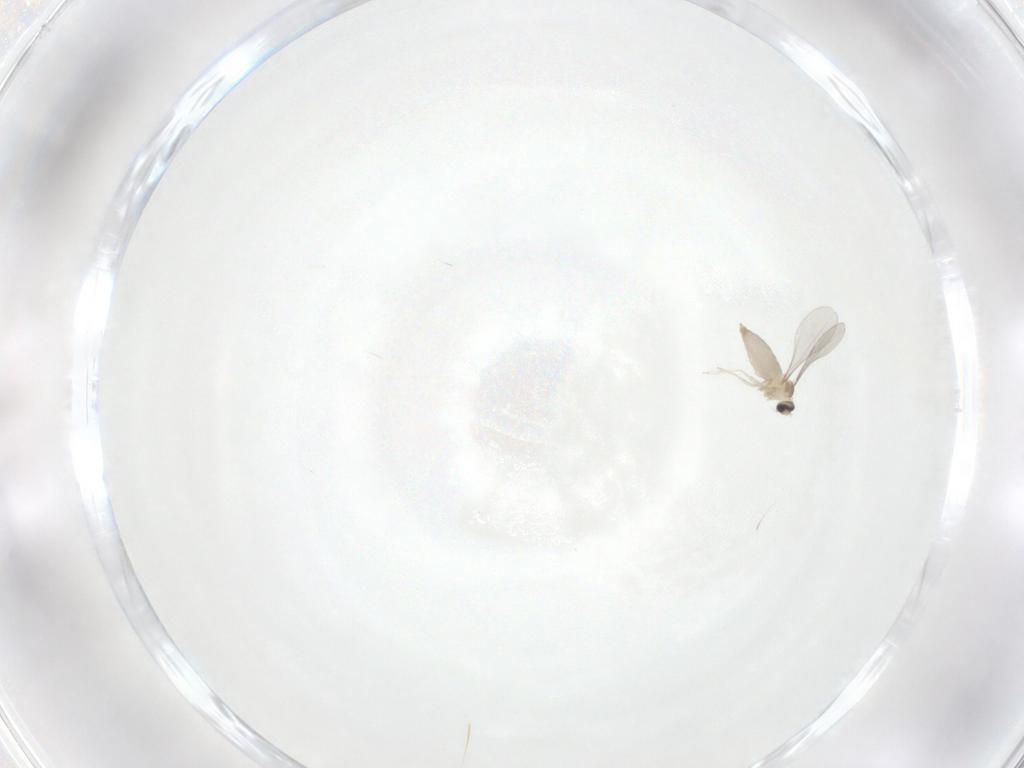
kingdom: Animalia
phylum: Arthropoda
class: Insecta
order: Diptera
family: Cecidomyiidae
